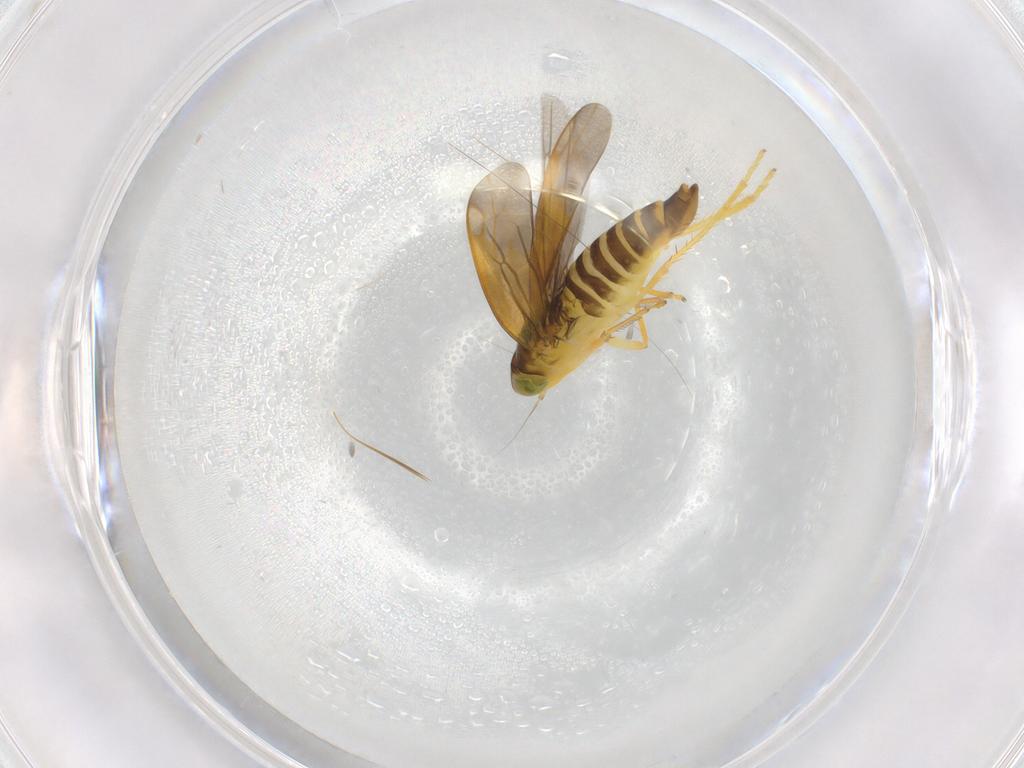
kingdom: Animalia
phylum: Arthropoda
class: Insecta
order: Hemiptera
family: Cicadellidae
